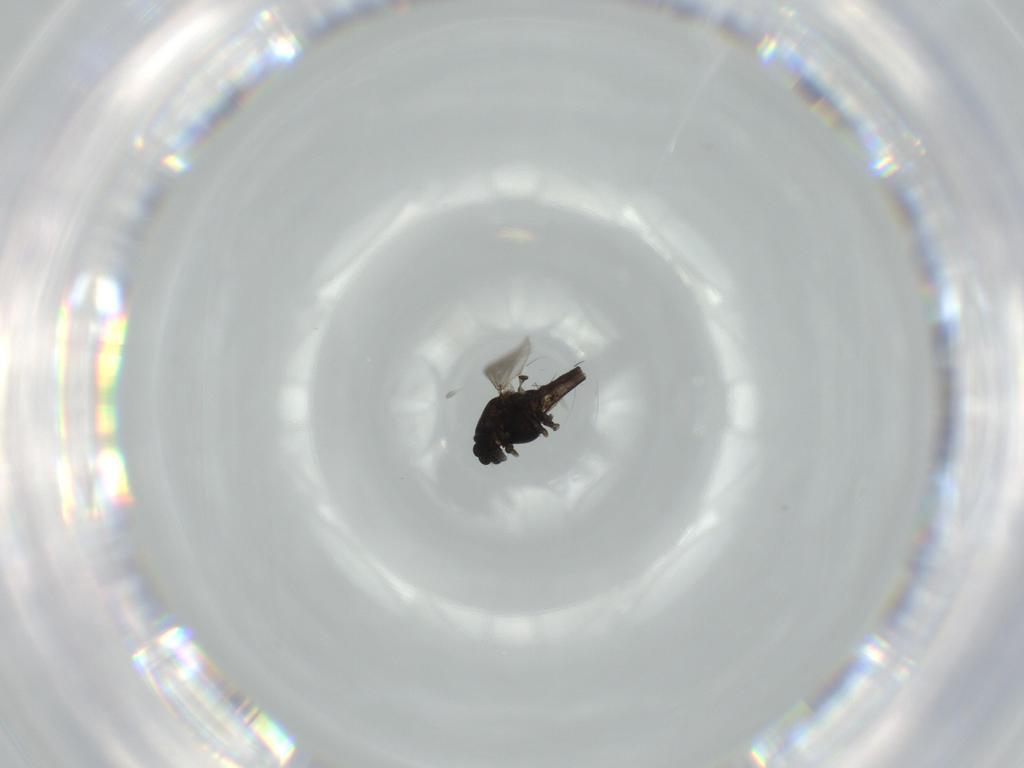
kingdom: Animalia
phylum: Arthropoda
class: Insecta
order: Diptera
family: Chironomidae
